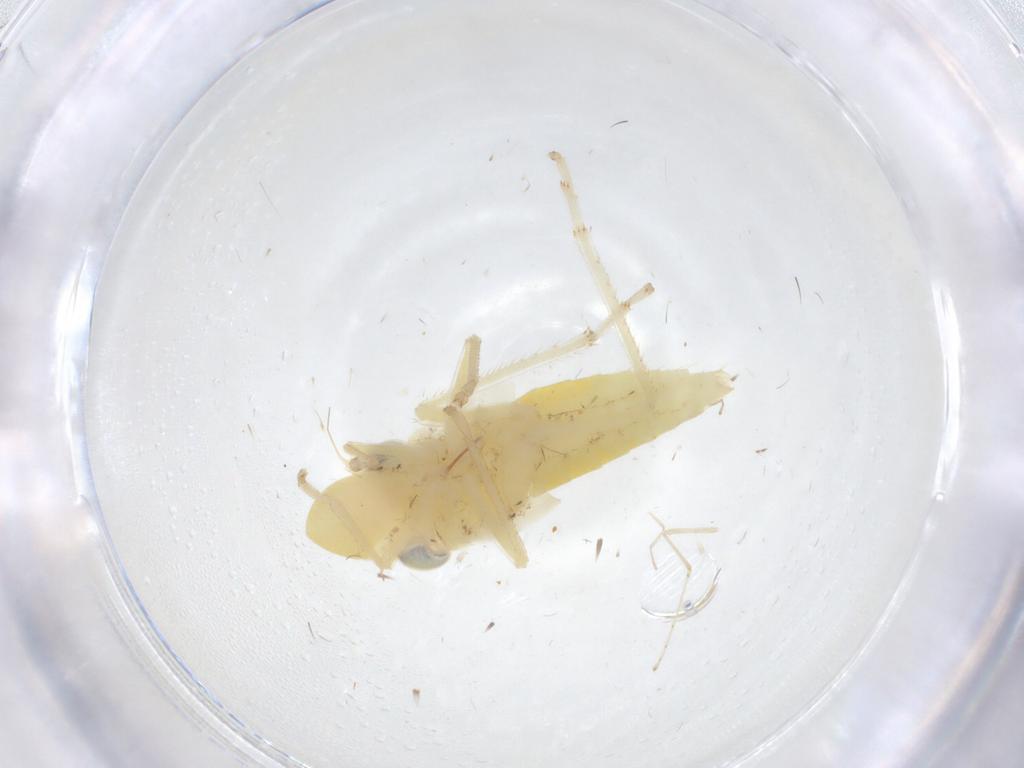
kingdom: Animalia
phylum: Arthropoda
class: Insecta
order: Hemiptera
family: Cicadellidae
